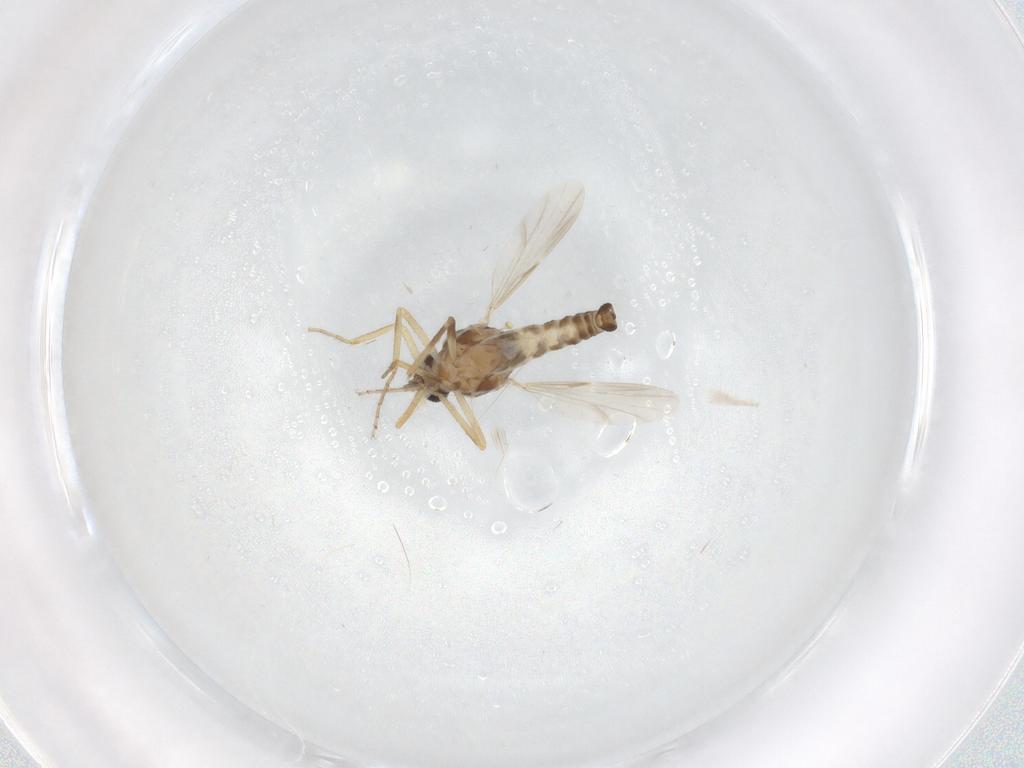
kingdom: Animalia
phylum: Arthropoda
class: Insecta
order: Diptera
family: Ceratopogonidae
